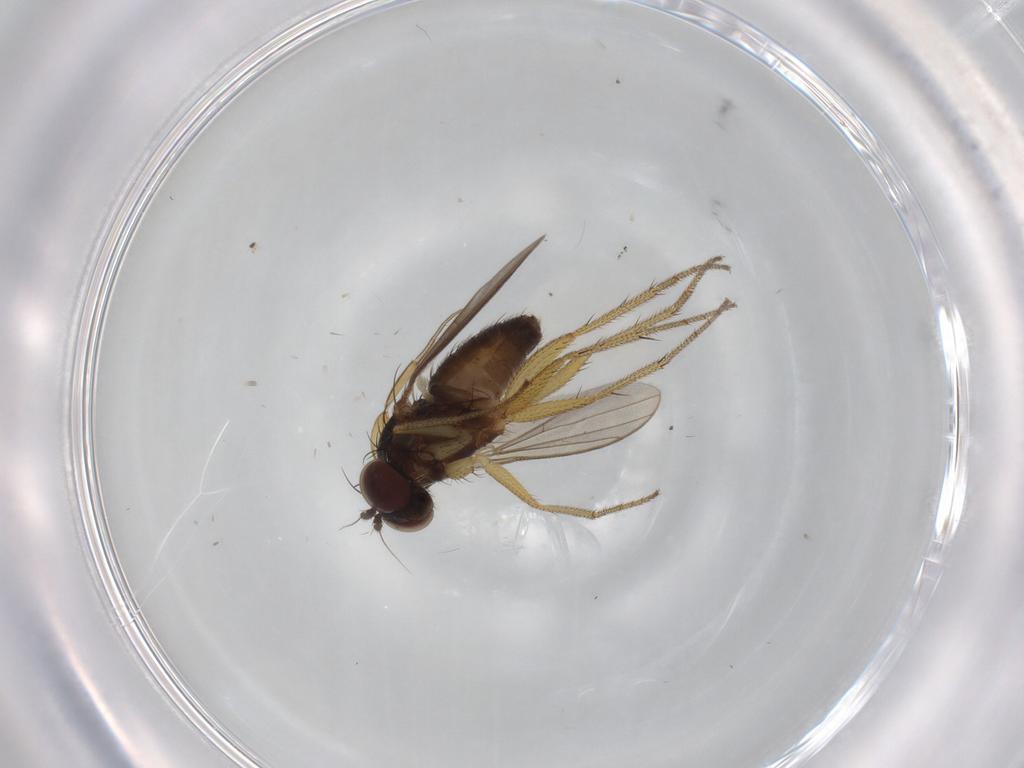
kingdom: Animalia
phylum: Arthropoda
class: Insecta
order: Diptera
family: Dolichopodidae
